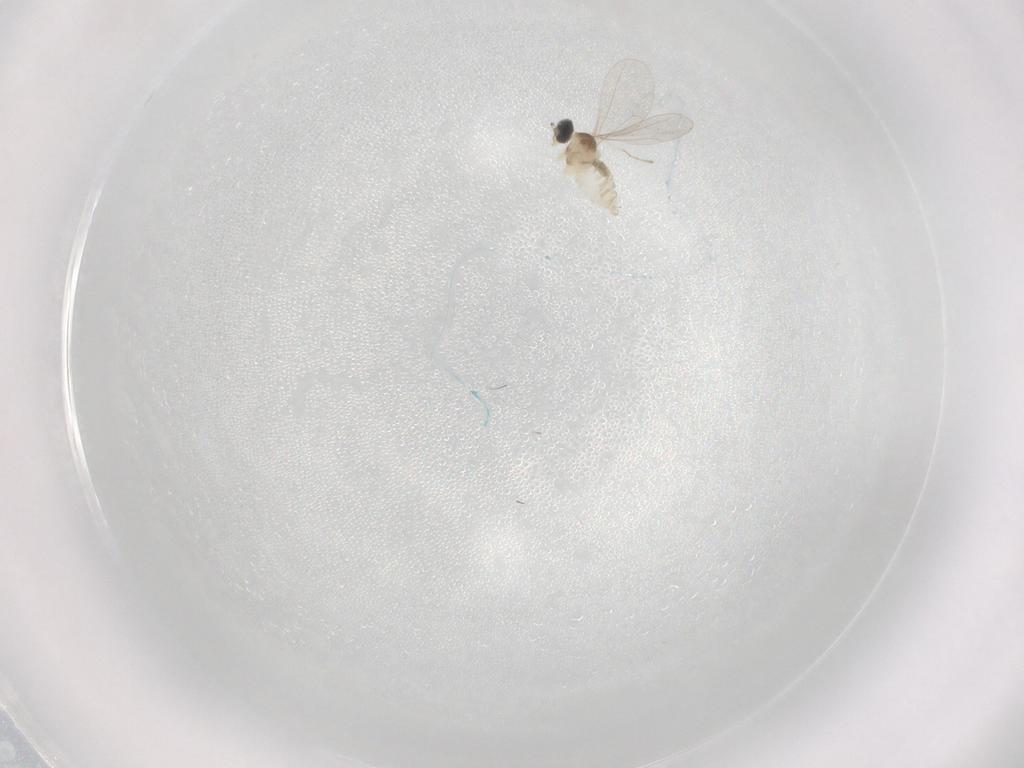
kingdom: Animalia
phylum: Arthropoda
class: Insecta
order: Diptera
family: Cecidomyiidae
